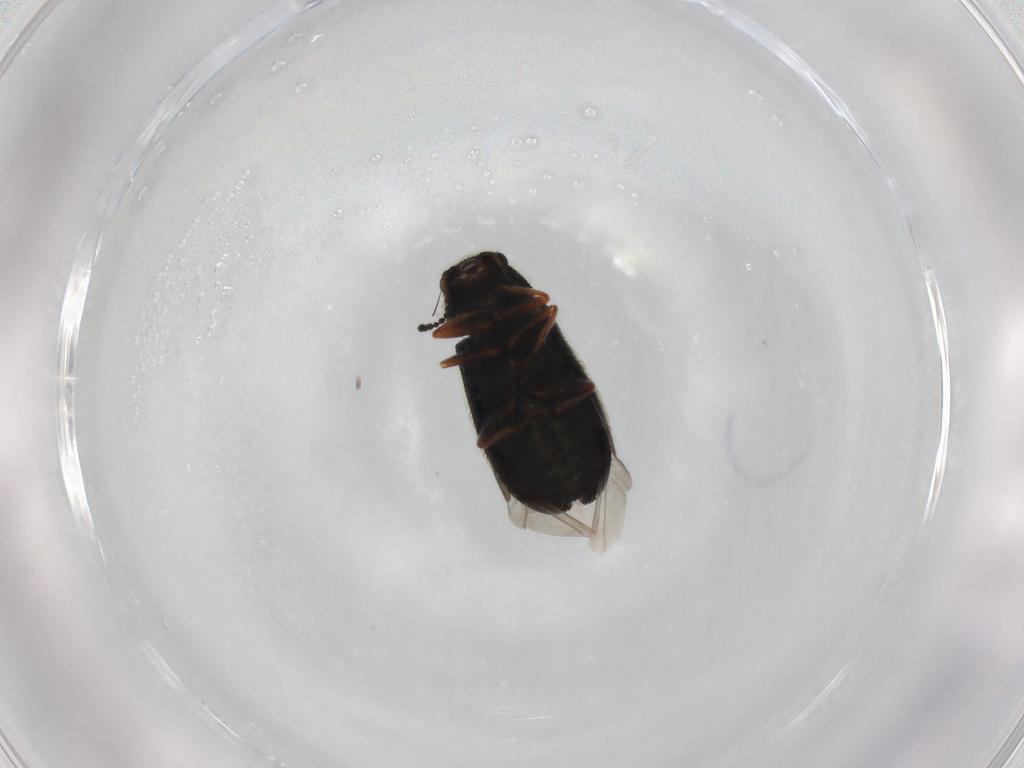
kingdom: Animalia
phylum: Arthropoda
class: Insecta
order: Coleoptera
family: Melyridae
